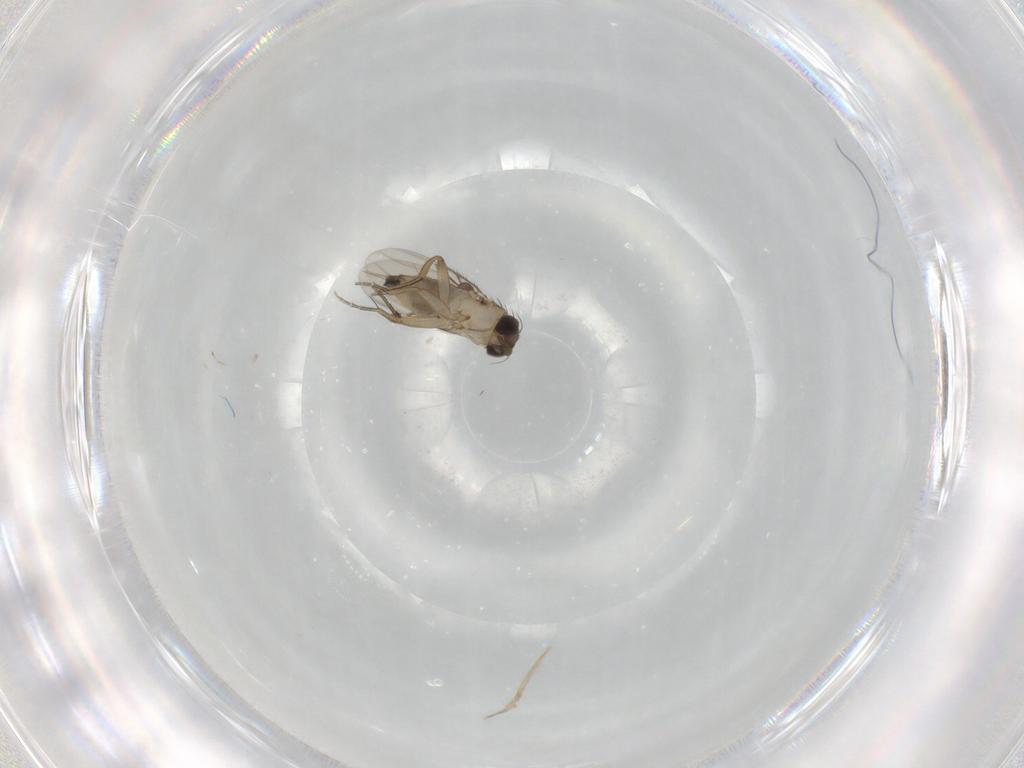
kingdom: Animalia
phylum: Arthropoda
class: Insecta
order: Diptera
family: Phoridae
